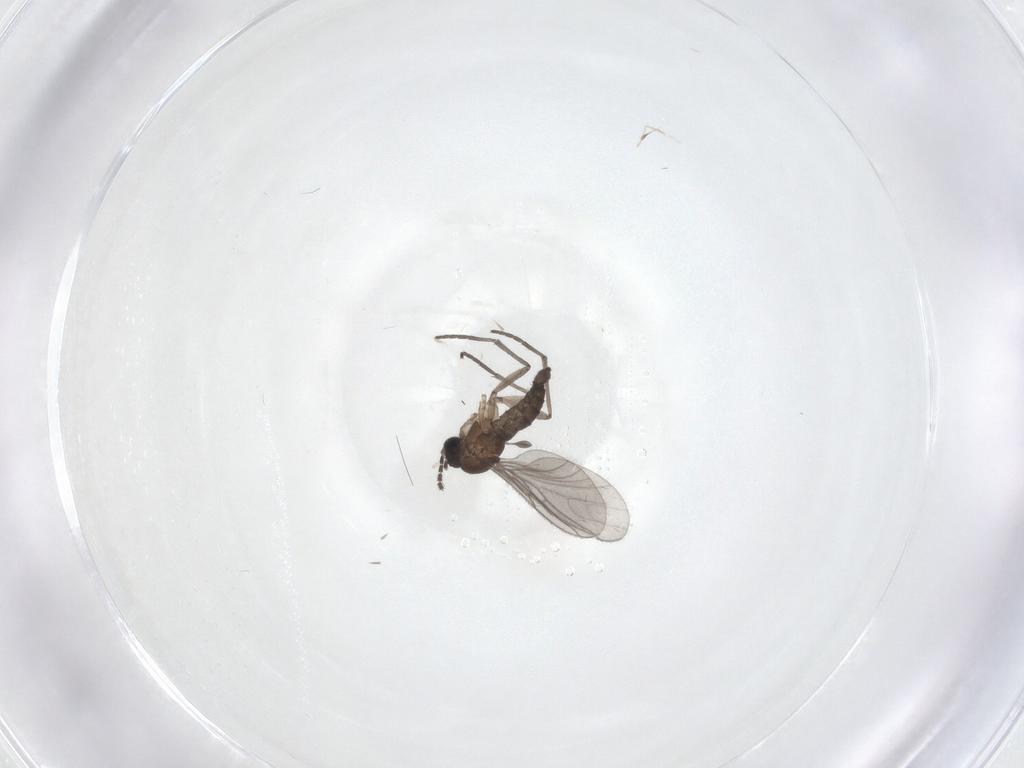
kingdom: Animalia
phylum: Arthropoda
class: Insecta
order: Diptera
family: Sciaridae
